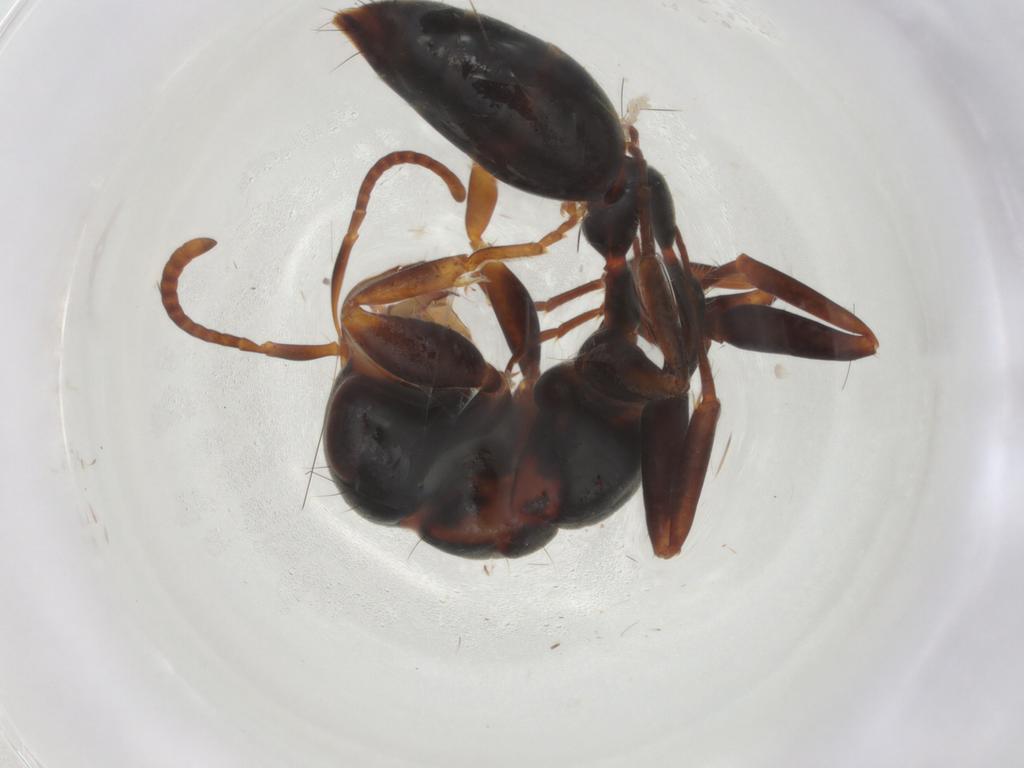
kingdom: Animalia
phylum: Arthropoda
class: Insecta
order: Hymenoptera
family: Formicidae
